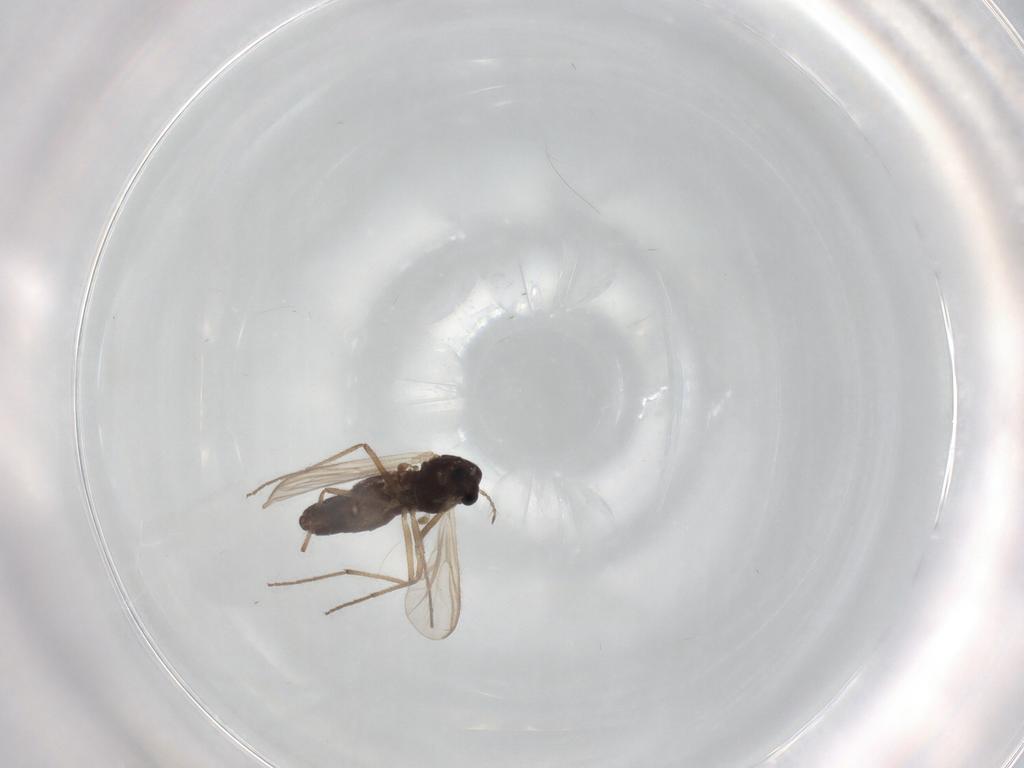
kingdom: Animalia
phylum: Arthropoda
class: Insecta
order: Diptera
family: Chironomidae
